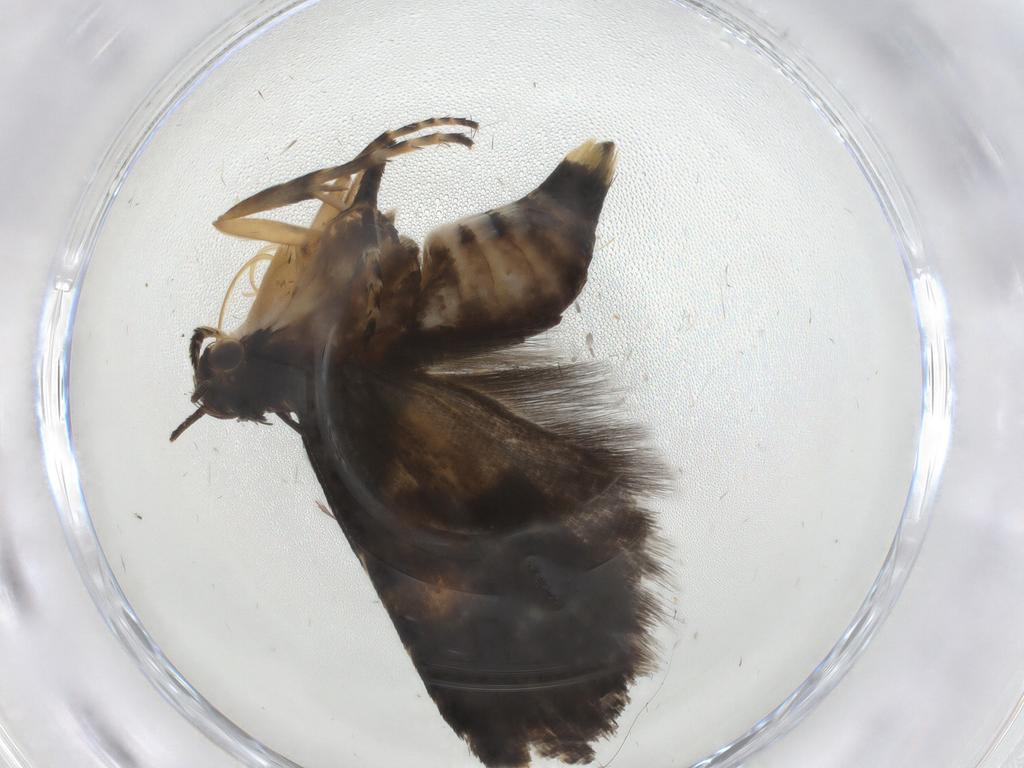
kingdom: Animalia
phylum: Arthropoda
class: Insecta
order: Lepidoptera
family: Glyphipterigidae
